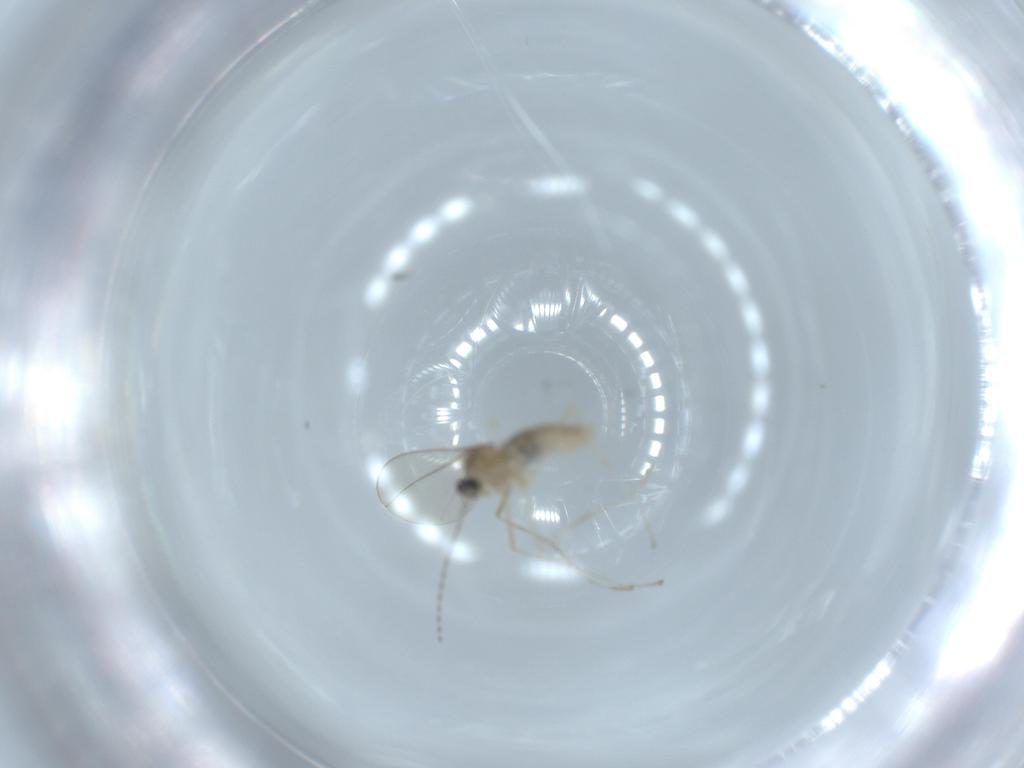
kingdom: Animalia
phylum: Arthropoda
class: Insecta
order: Diptera
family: Cecidomyiidae
